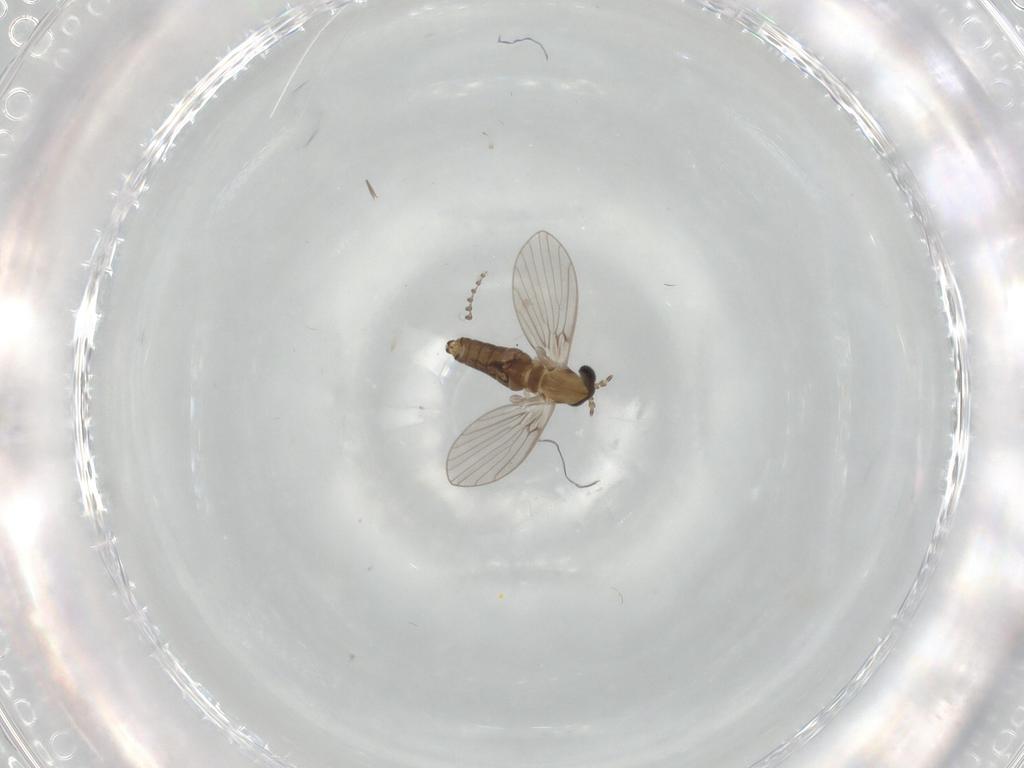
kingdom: Animalia
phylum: Arthropoda
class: Insecta
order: Diptera
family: Psychodidae
